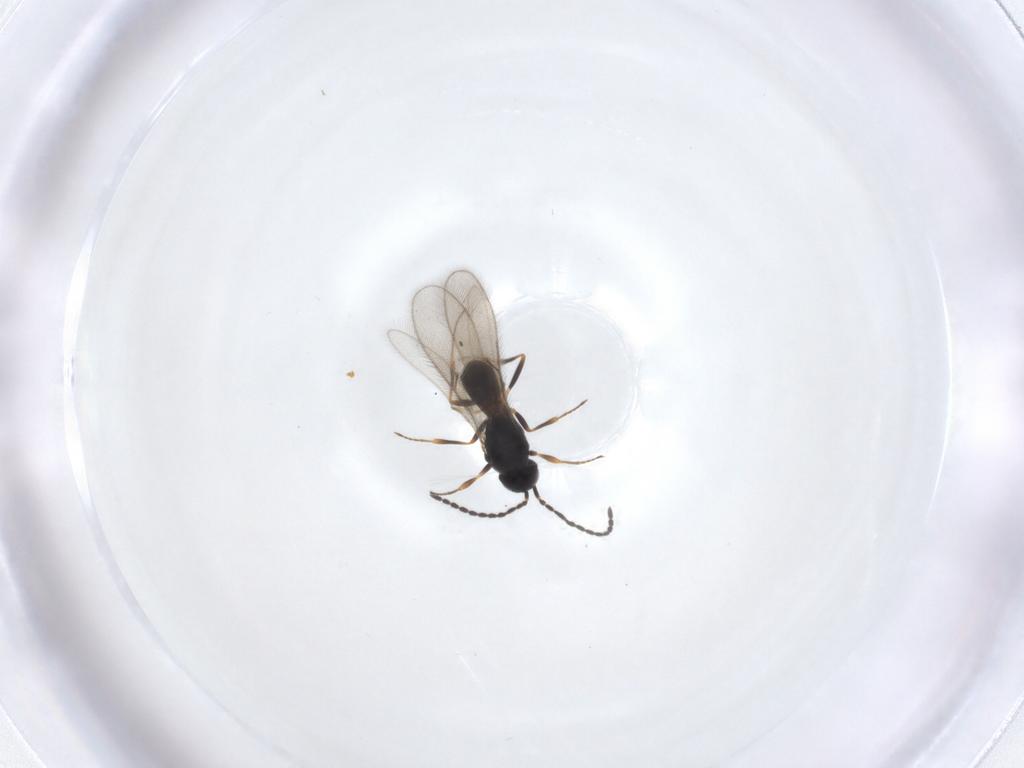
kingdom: Animalia
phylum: Arthropoda
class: Insecta
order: Hymenoptera
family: Scelionidae
